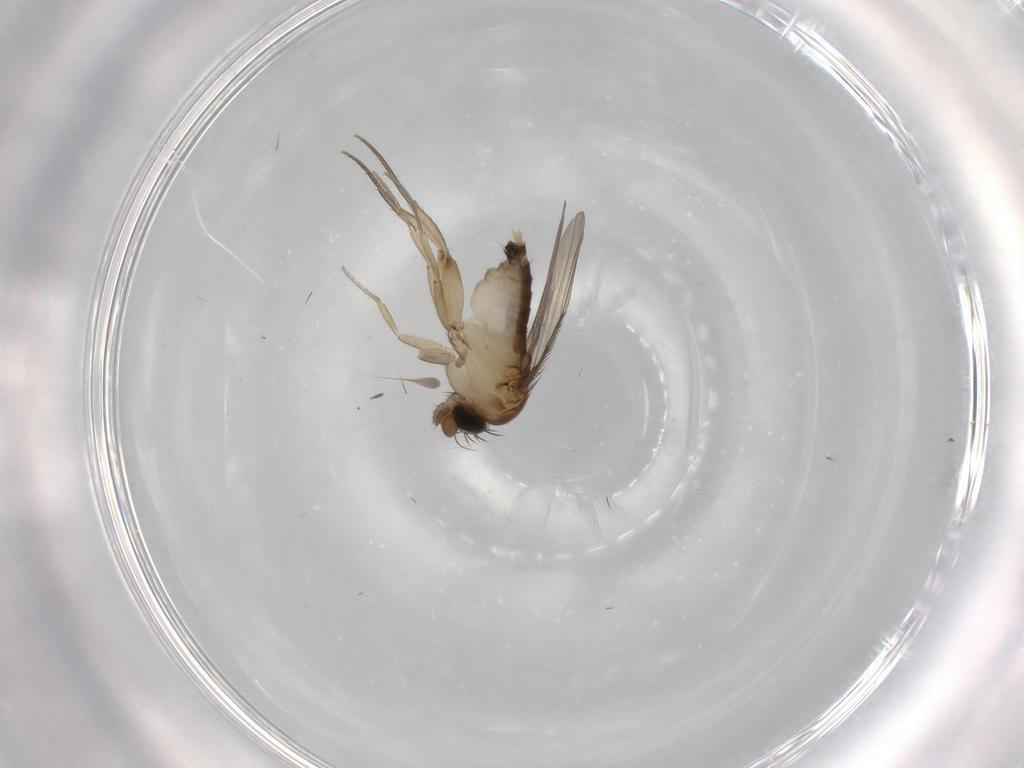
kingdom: Animalia
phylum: Arthropoda
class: Insecta
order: Diptera
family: Phoridae
